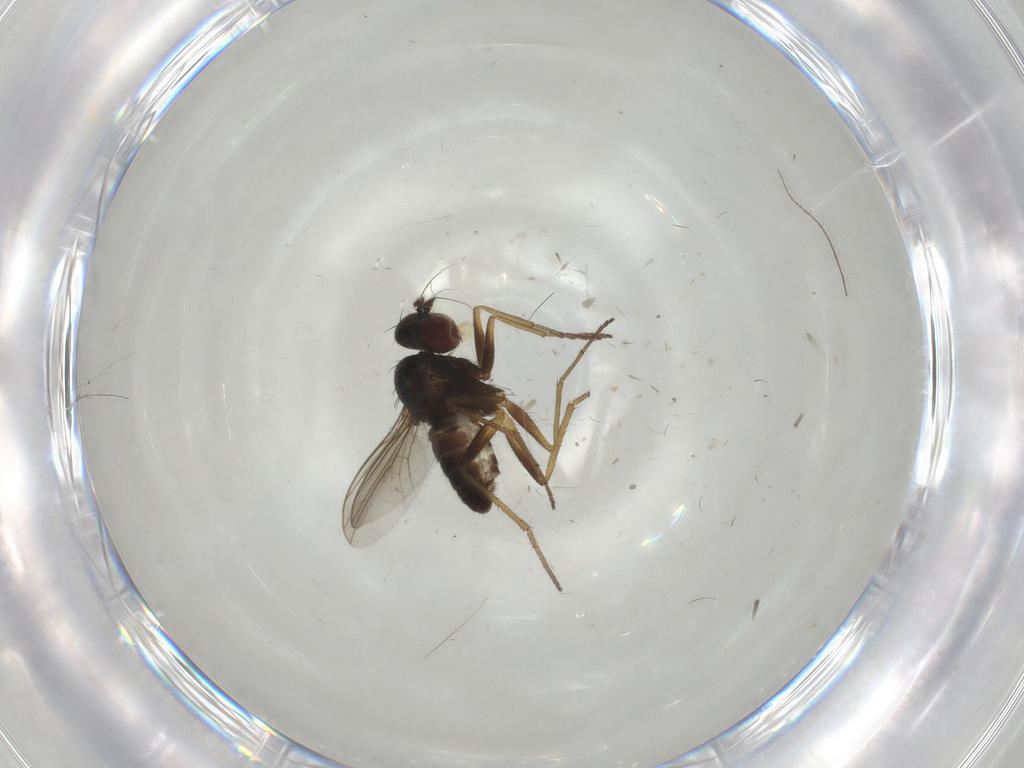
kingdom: Animalia
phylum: Arthropoda
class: Insecta
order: Diptera
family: Dolichopodidae
